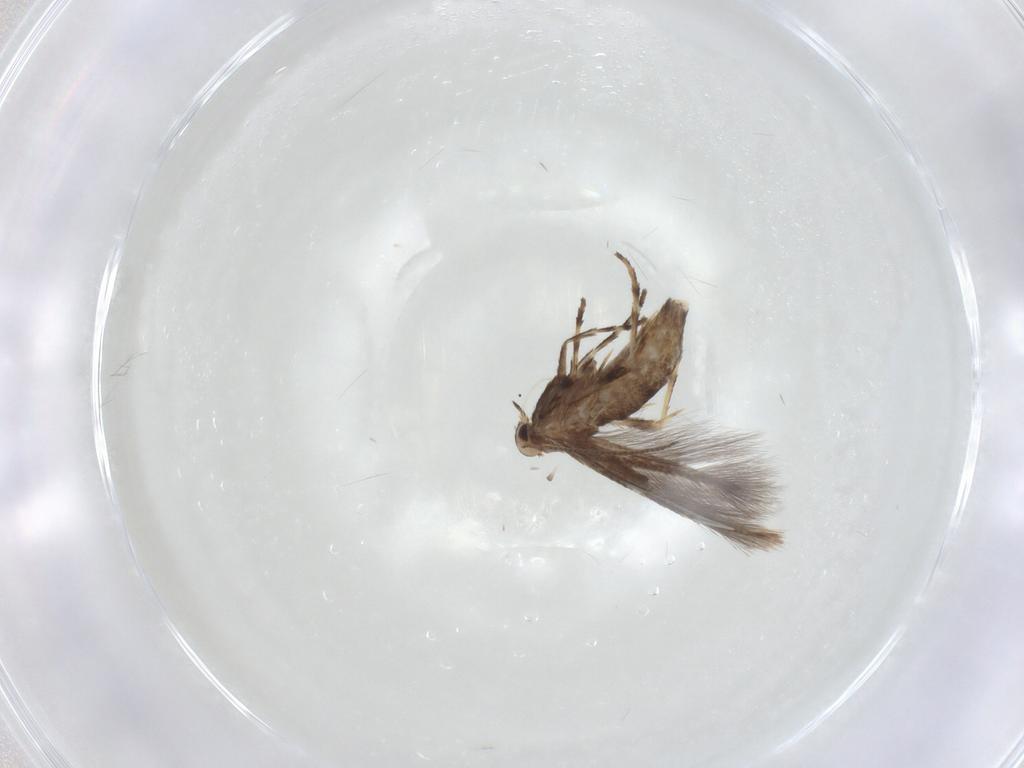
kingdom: Animalia
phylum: Arthropoda
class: Insecta
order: Lepidoptera
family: Gracillariidae
